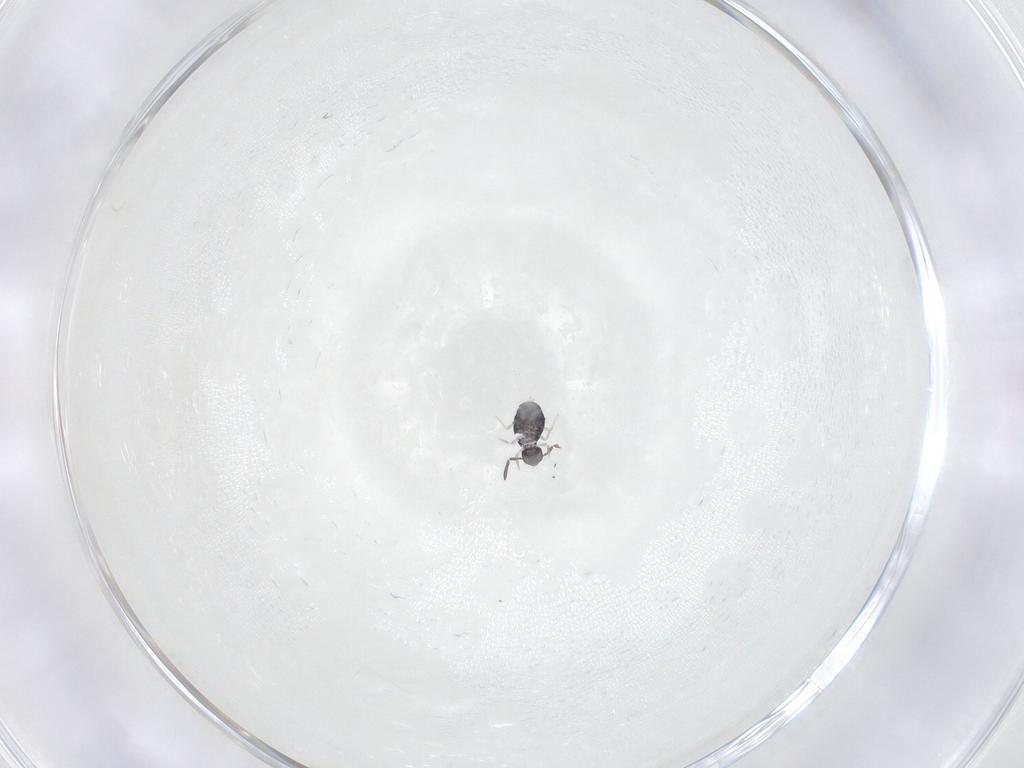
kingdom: Animalia
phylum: Arthropoda
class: Collembola
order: Symphypleona
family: Katiannidae
